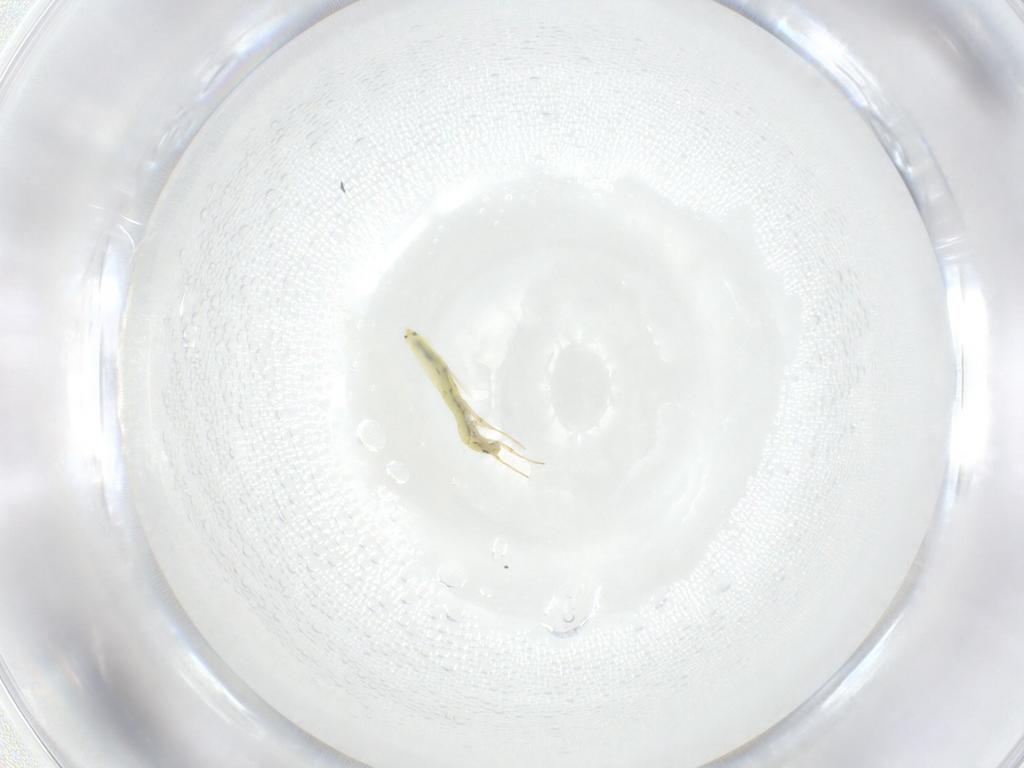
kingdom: Animalia
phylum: Arthropoda
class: Collembola
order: Entomobryomorpha
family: Entomobryidae
